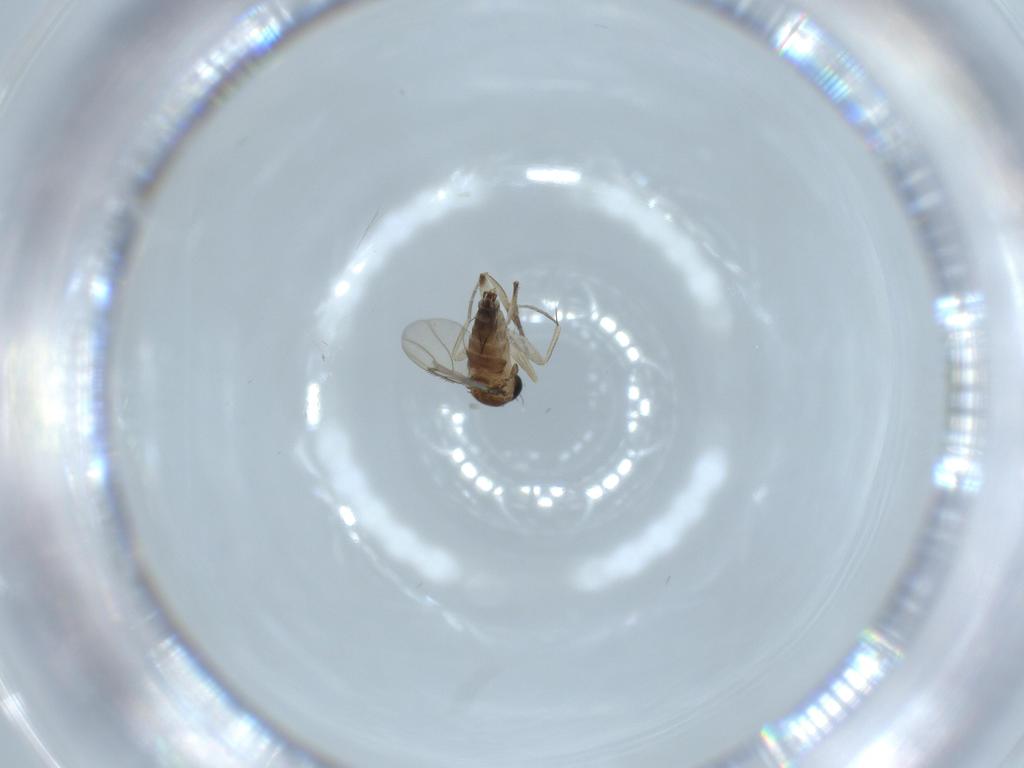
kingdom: Animalia
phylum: Arthropoda
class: Insecta
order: Diptera
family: Phoridae
